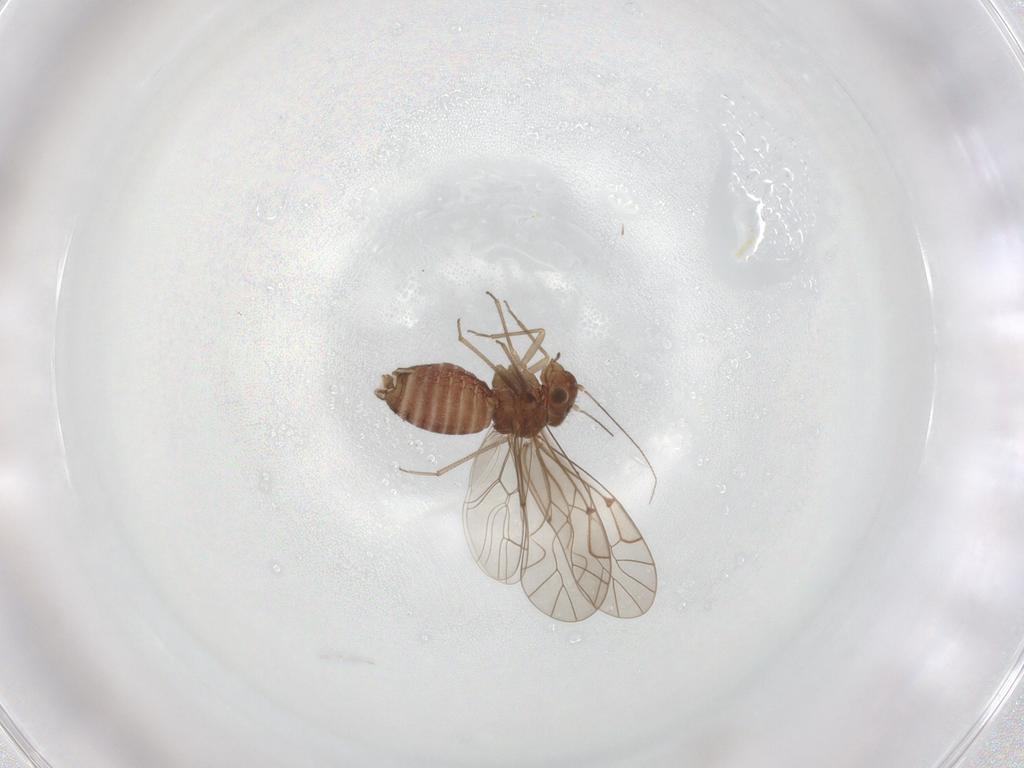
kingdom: Animalia
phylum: Arthropoda
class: Insecta
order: Psocodea
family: Lachesillidae
